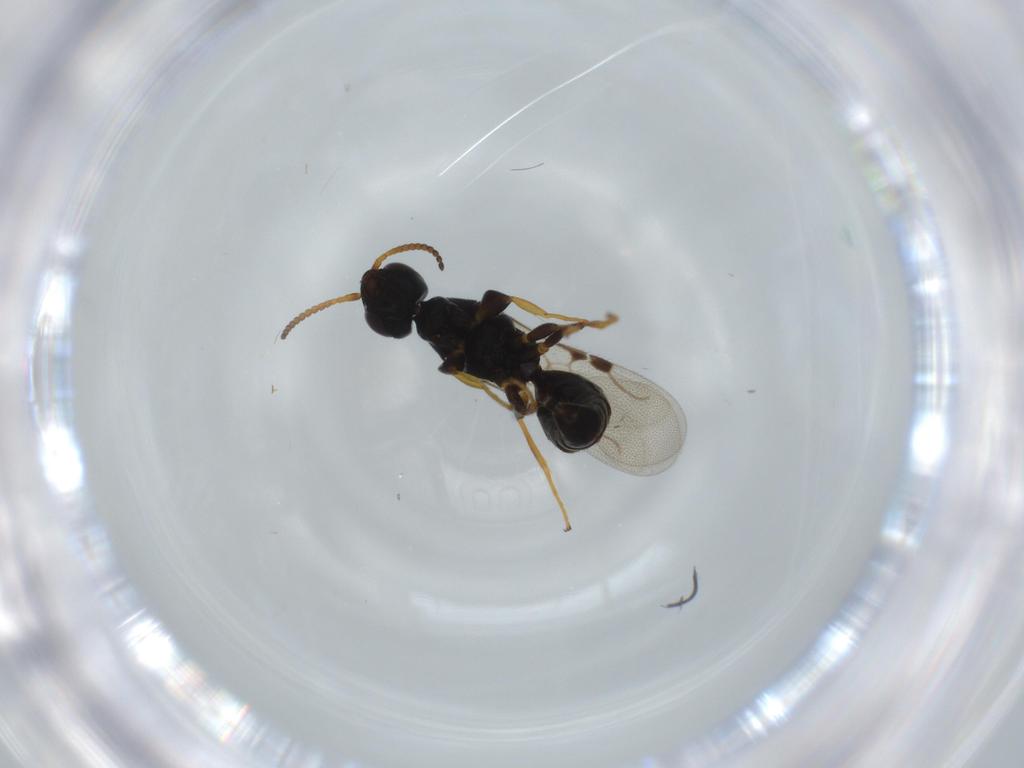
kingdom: Animalia
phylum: Arthropoda
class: Insecta
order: Hymenoptera
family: Bethylidae
